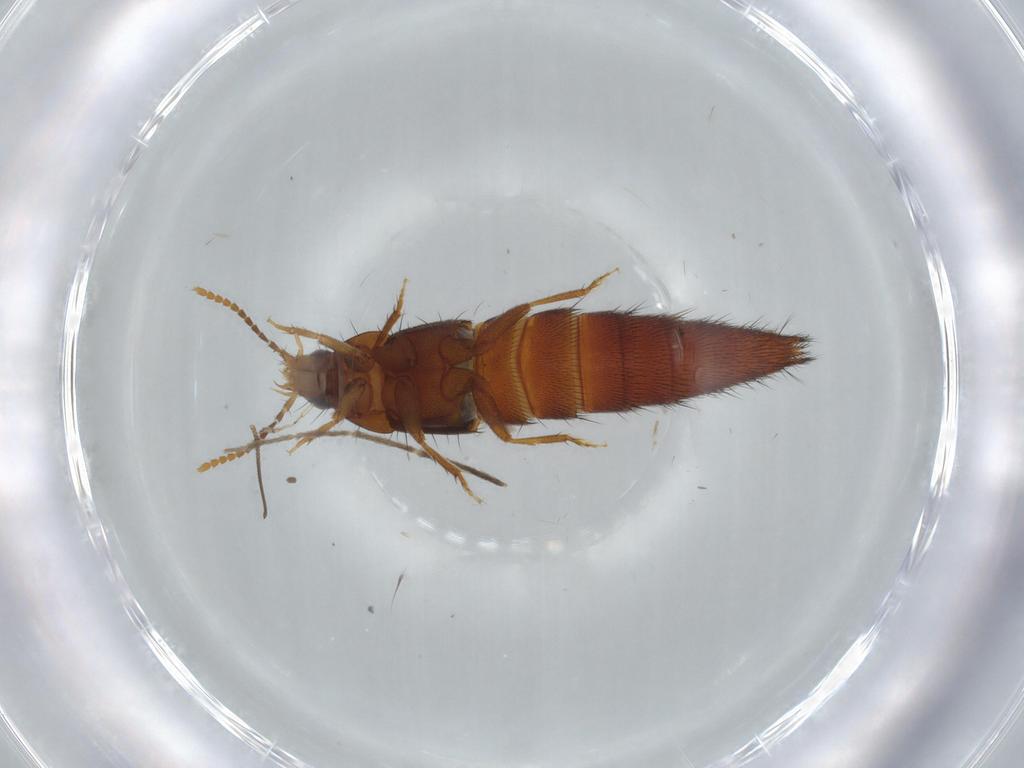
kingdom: Animalia
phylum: Arthropoda
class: Insecta
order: Coleoptera
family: Staphylinidae
